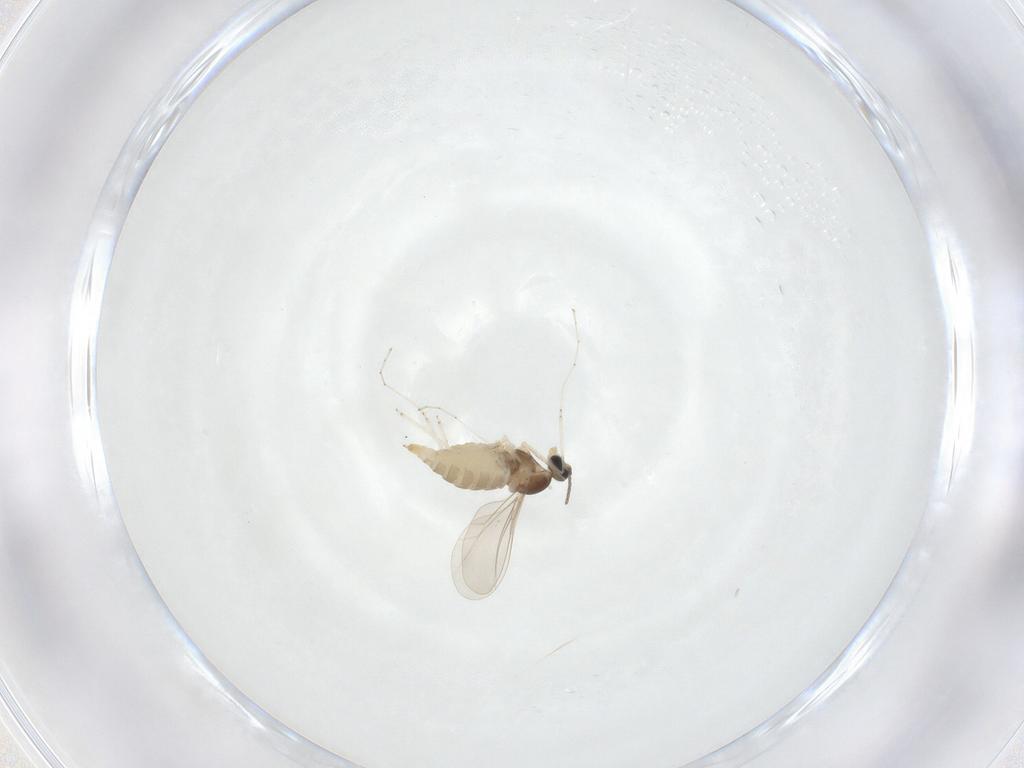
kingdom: Animalia
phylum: Arthropoda
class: Insecta
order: Diptera
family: Cecidomyiidae
